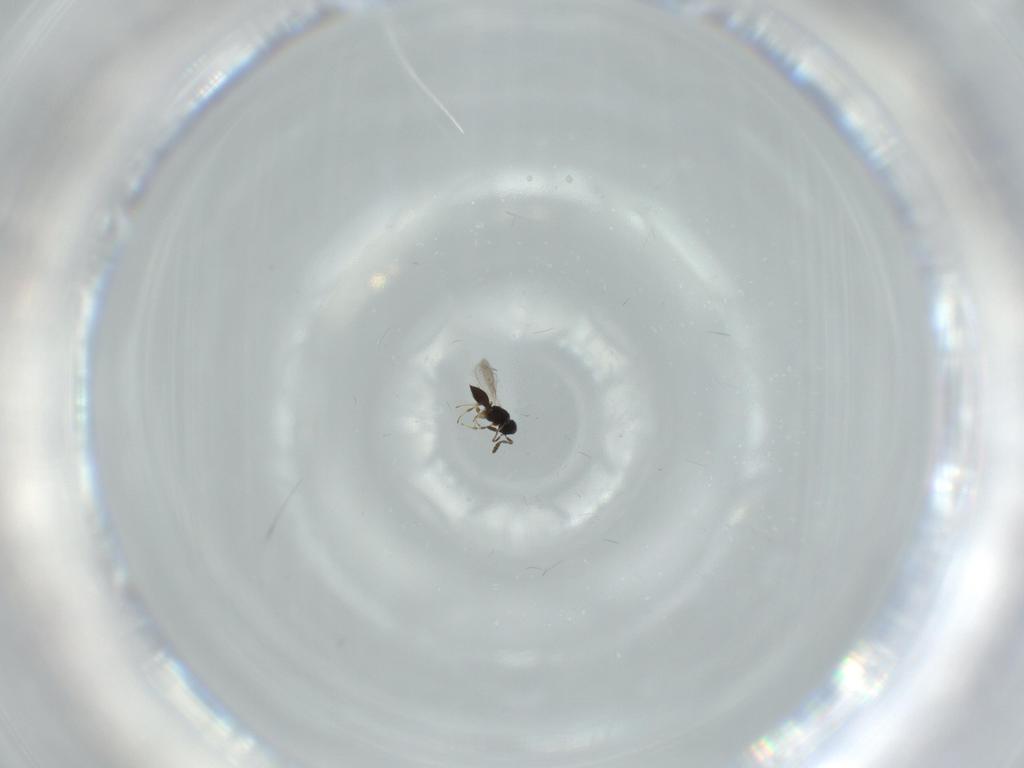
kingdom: Animalia
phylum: Arthropoda
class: Insecta
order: Hymenoptera
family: Scelionidae
